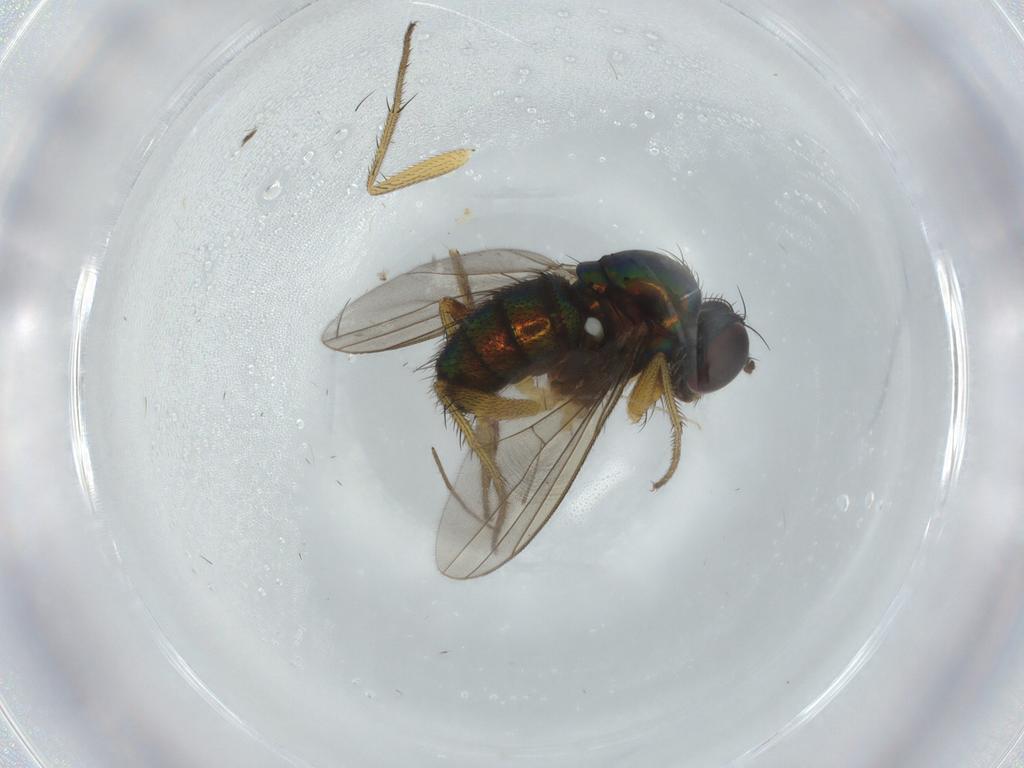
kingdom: Animalia
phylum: Arthropoda
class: Insecta
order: Diptera
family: Dolichopodidae
